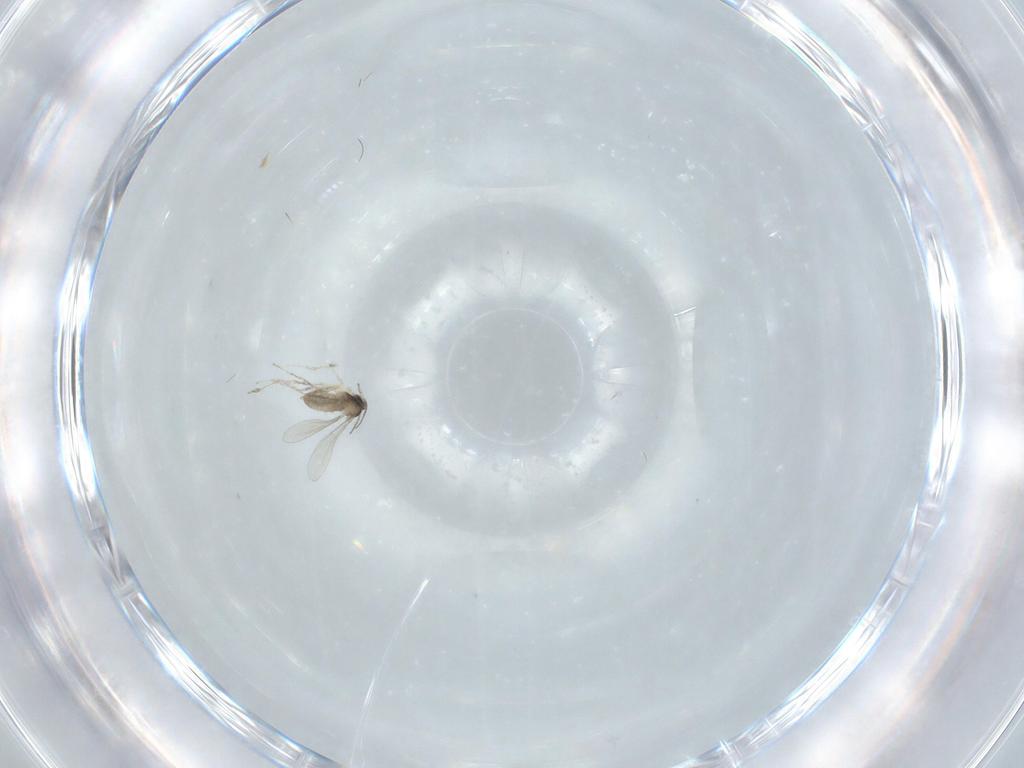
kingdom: Animalia
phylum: Arthropoda
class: Insecta
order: Diptera
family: Cecidomyiidae
